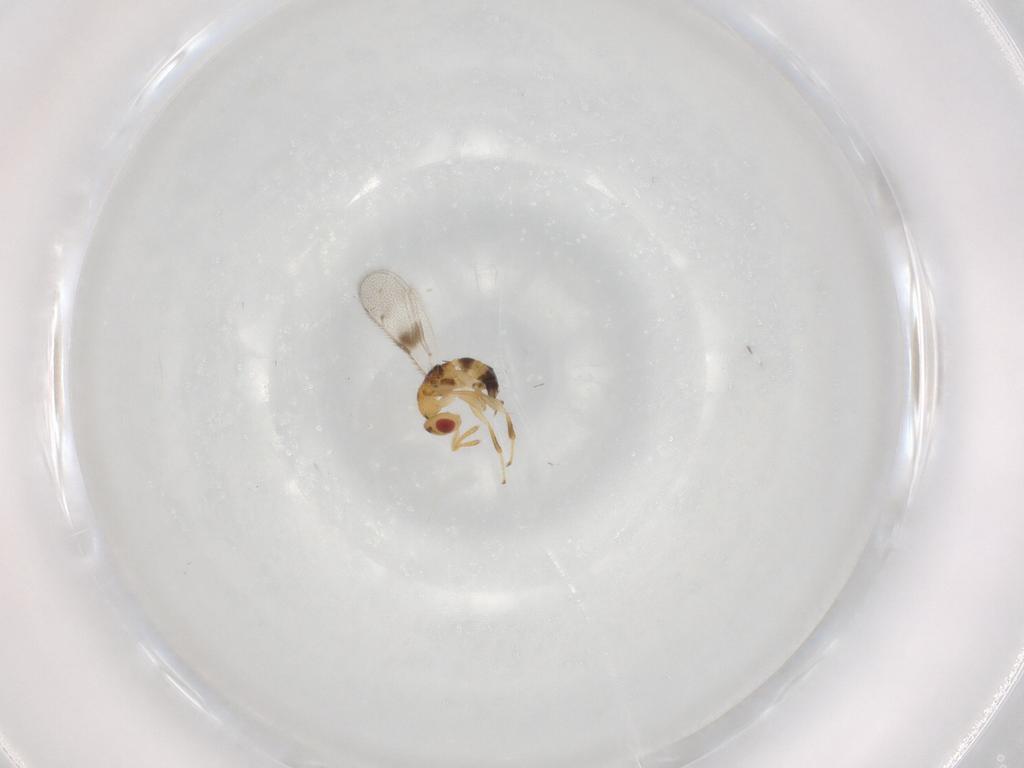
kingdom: Animalia
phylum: Arthropoda
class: Insecta
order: Hymenoptera
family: Torymidae
